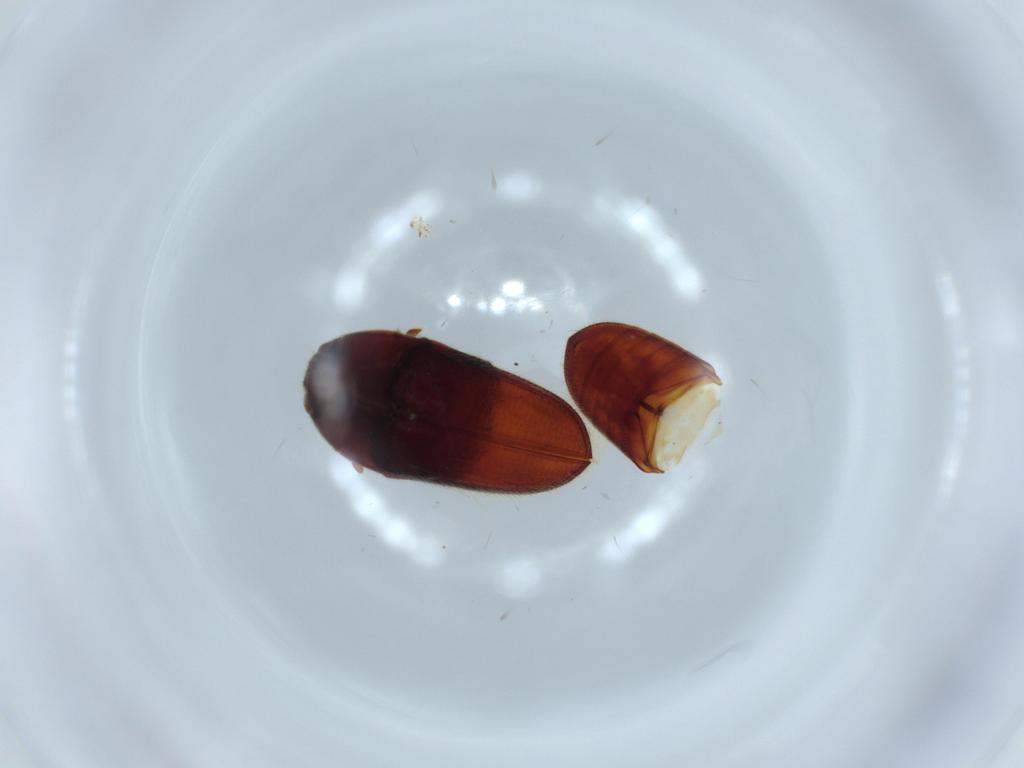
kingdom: Animalia
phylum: Arthropoda
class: Insecta
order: Coleoptera
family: Throscidae
